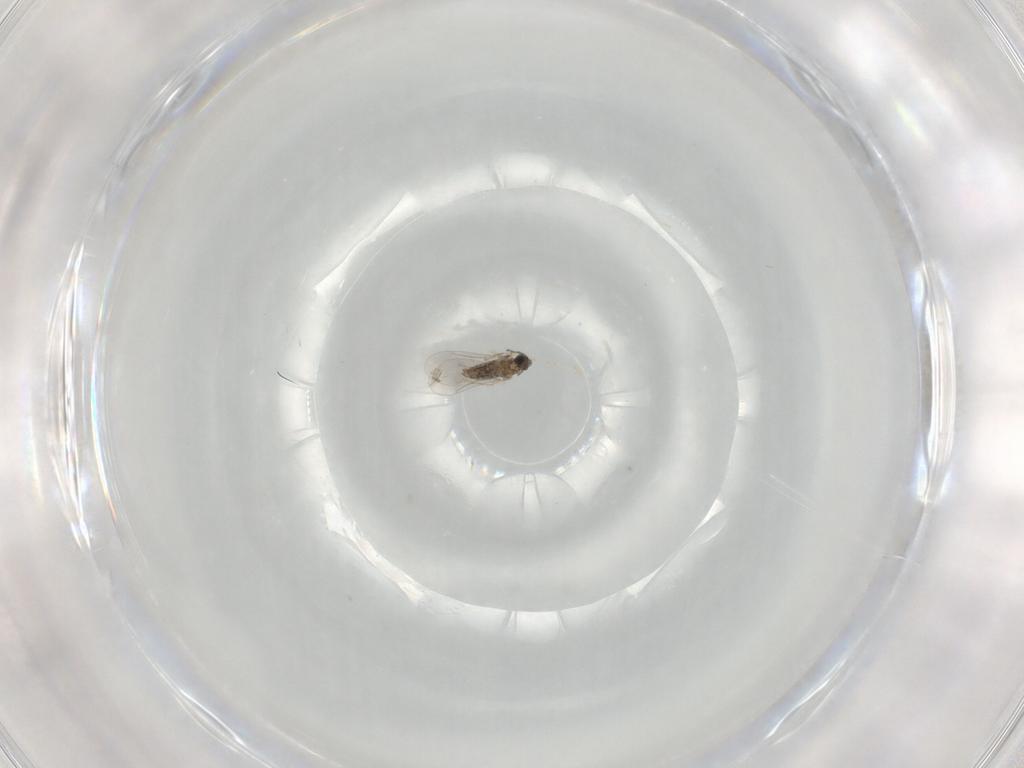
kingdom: Animalia
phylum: Arthropoda
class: Insecta
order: Diptera
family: Cecidomyiidae
